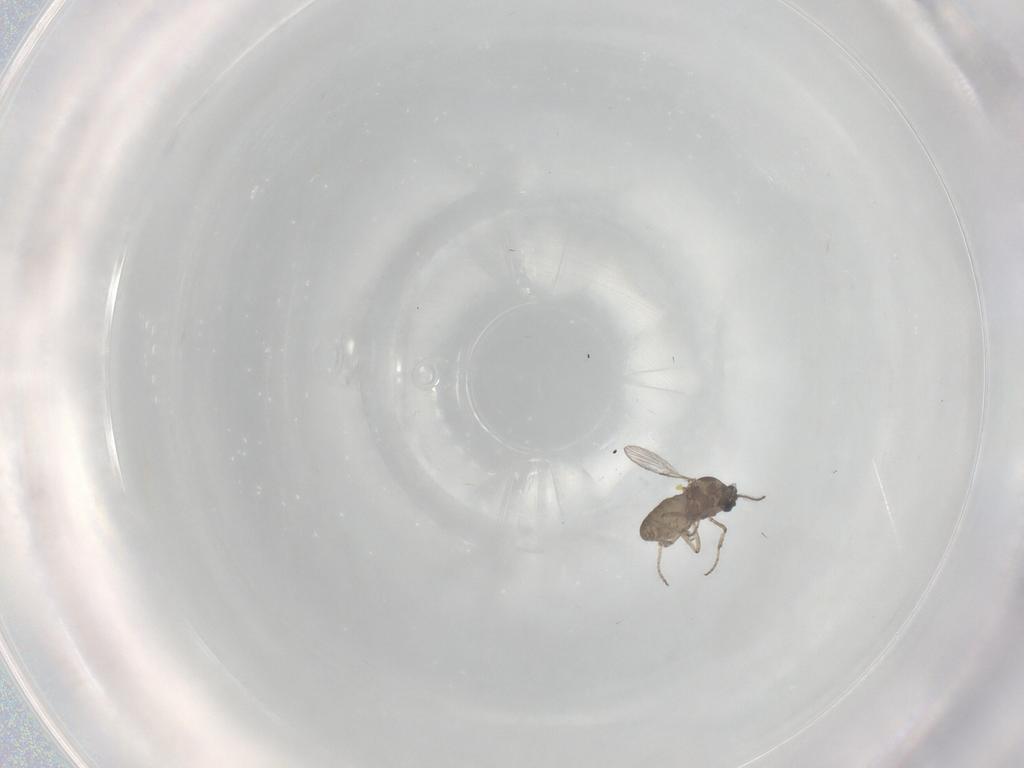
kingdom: Animalia
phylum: Arthropoda
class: Insecta
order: Diptera
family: Ceratopogonidae
